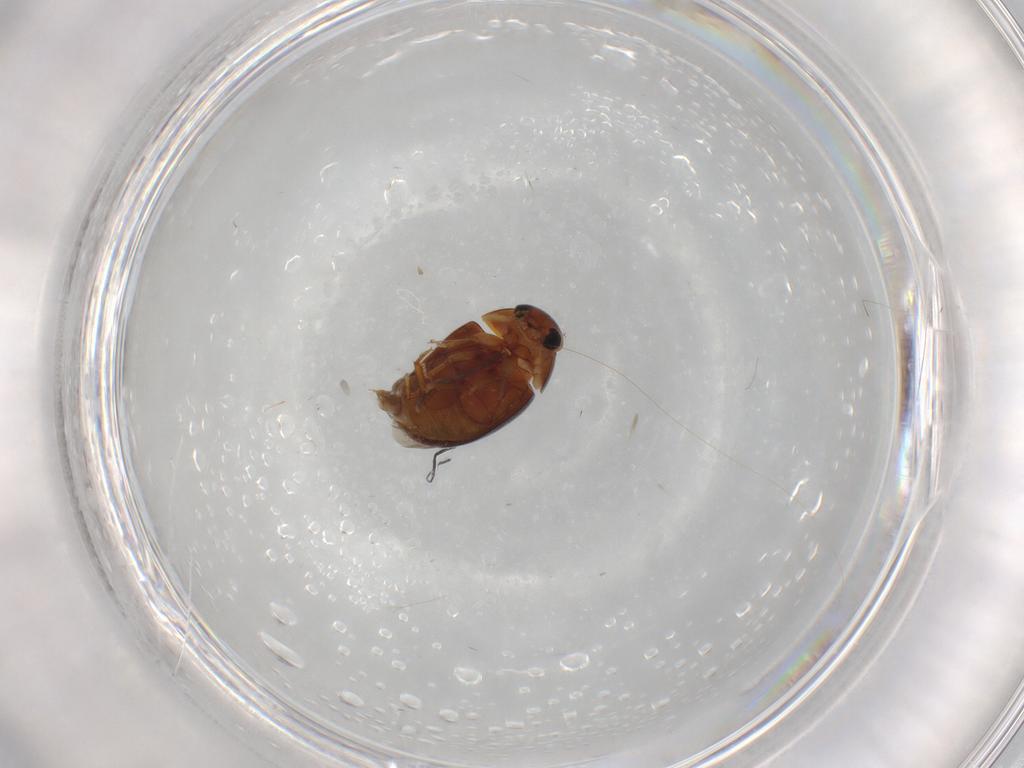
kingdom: Animalia
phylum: Arthropoda
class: Insecta
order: Coleoptera
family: Phalacridae
